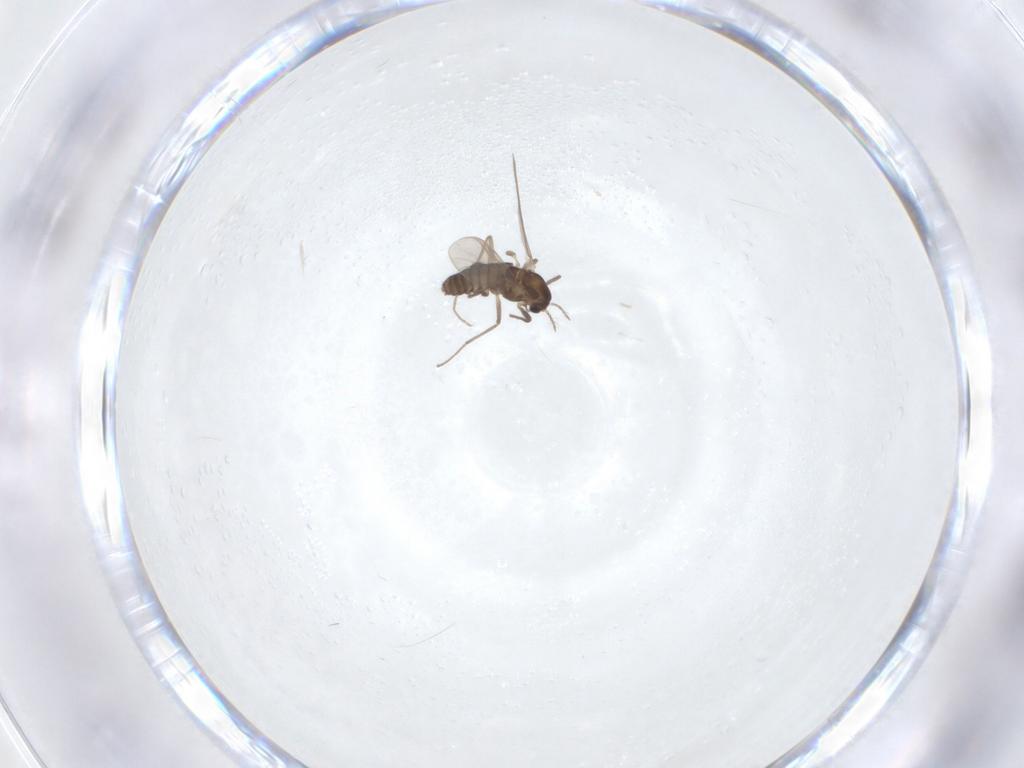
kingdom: Animalia
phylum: Arthropoda
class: Insecta
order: Diptera
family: Chironomidae
